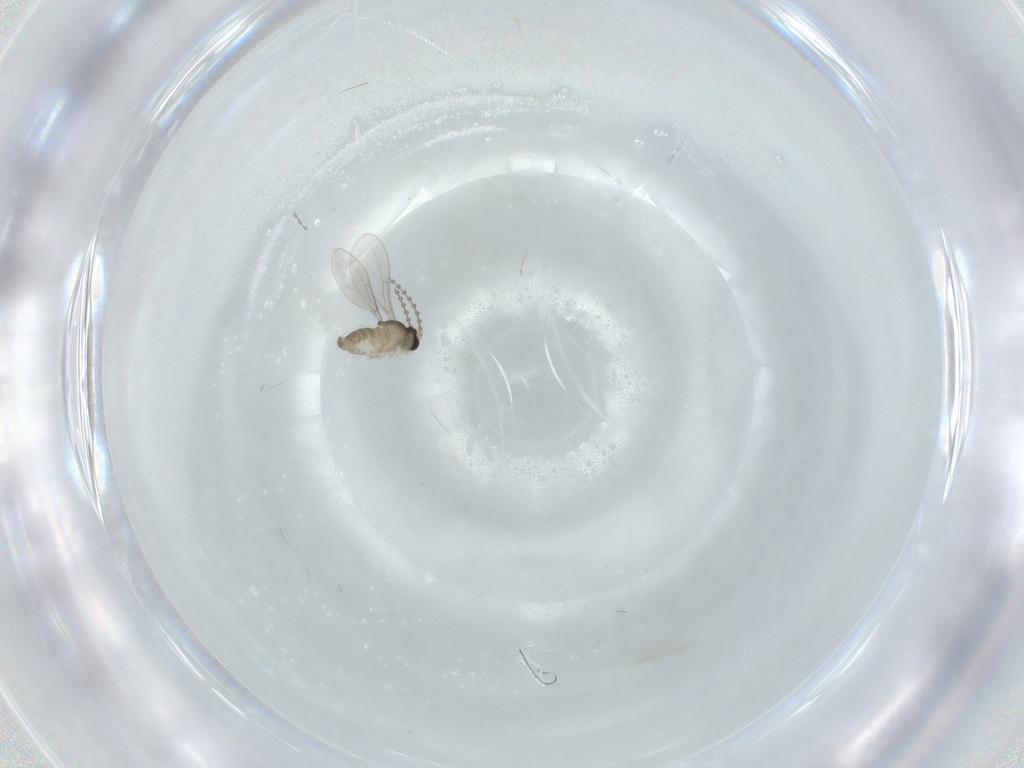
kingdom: Animalia
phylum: Arthropoda
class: Insecta
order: Diptera
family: Cecidomyiidae
